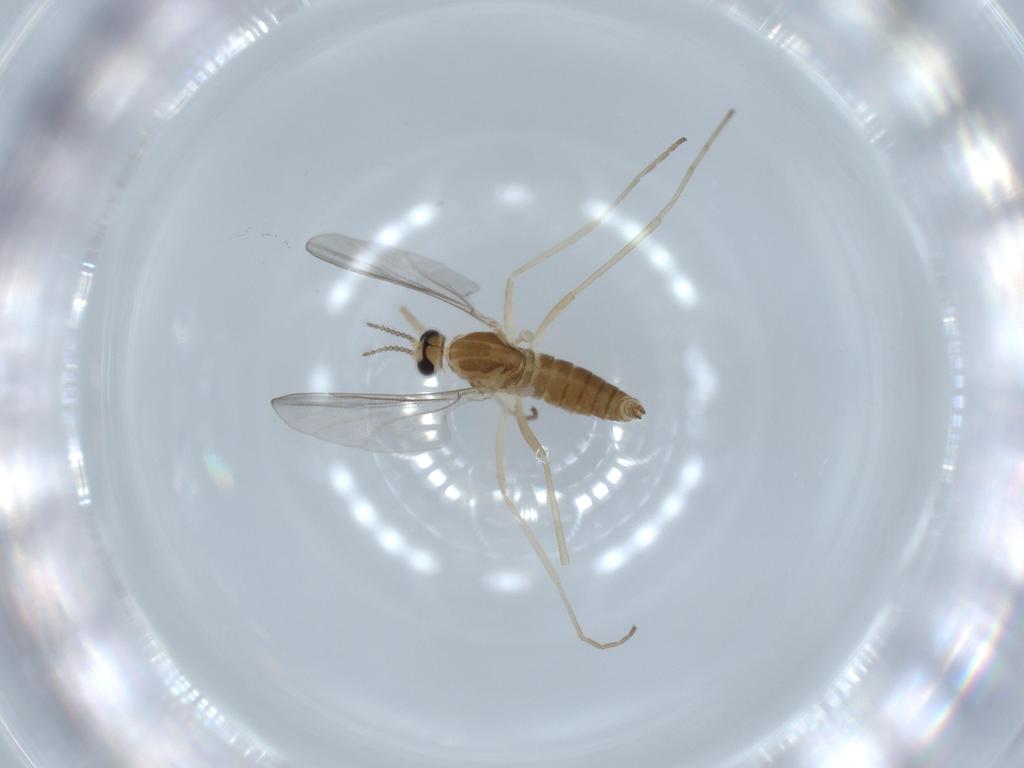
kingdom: Animalia
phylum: Arthropoda
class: Insecta
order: Diptera
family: Cecidomyiidae
